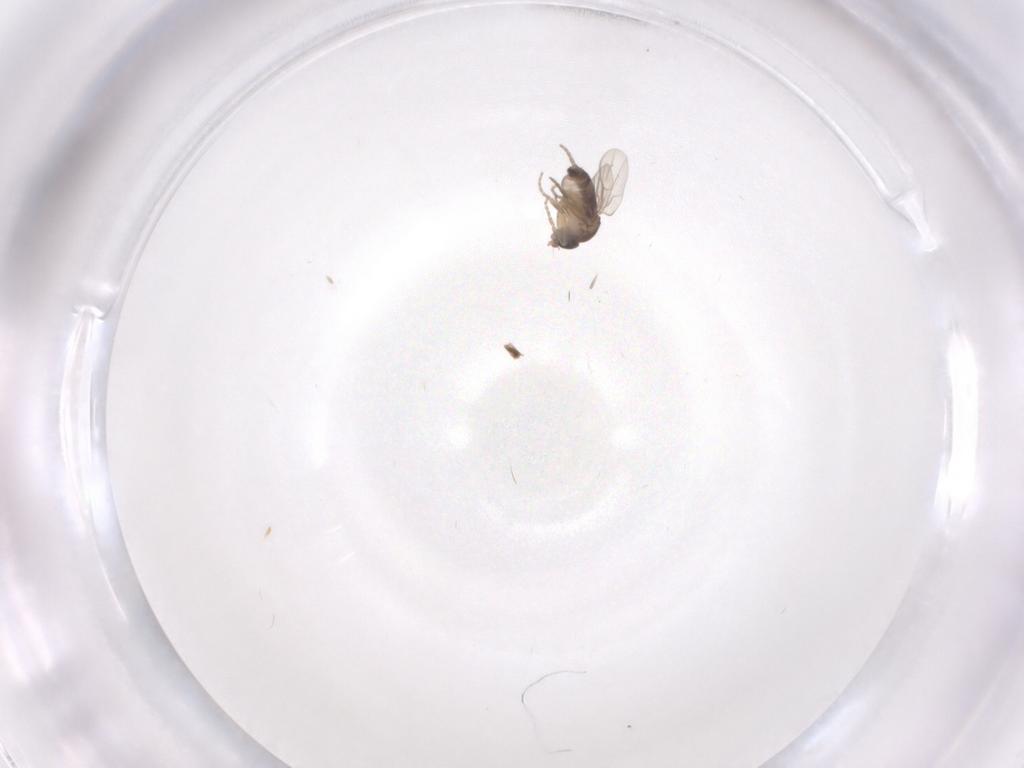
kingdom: Animalia
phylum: Arthropoda
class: Insecta
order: Diptera
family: Phoridae
